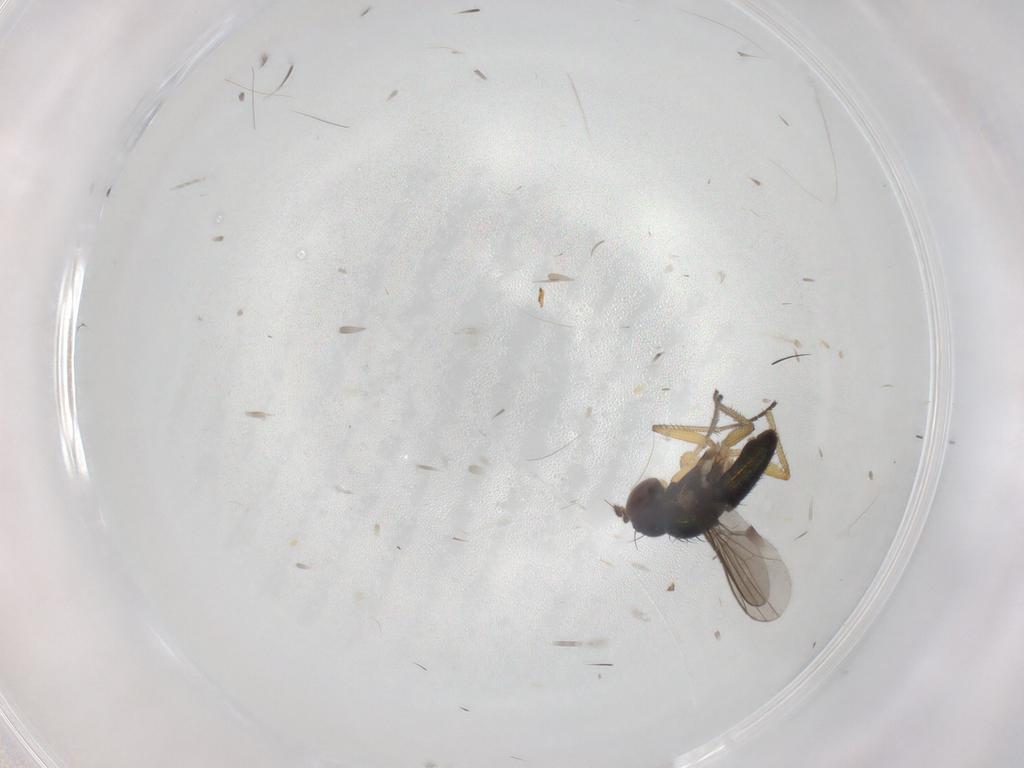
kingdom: Animalia
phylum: Arthropoda
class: Insecta
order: Diptera
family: Dolichopodidae
